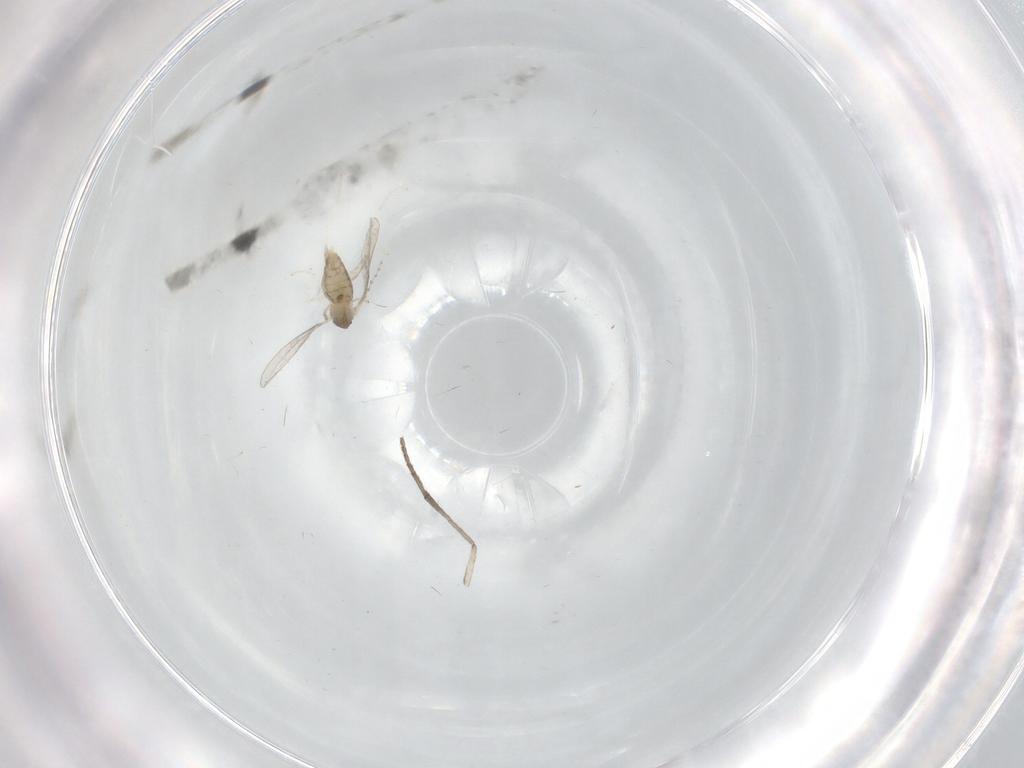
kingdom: Animalia
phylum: Arthropoda
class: Insecta
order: Diptera
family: Cecidomyiidae
